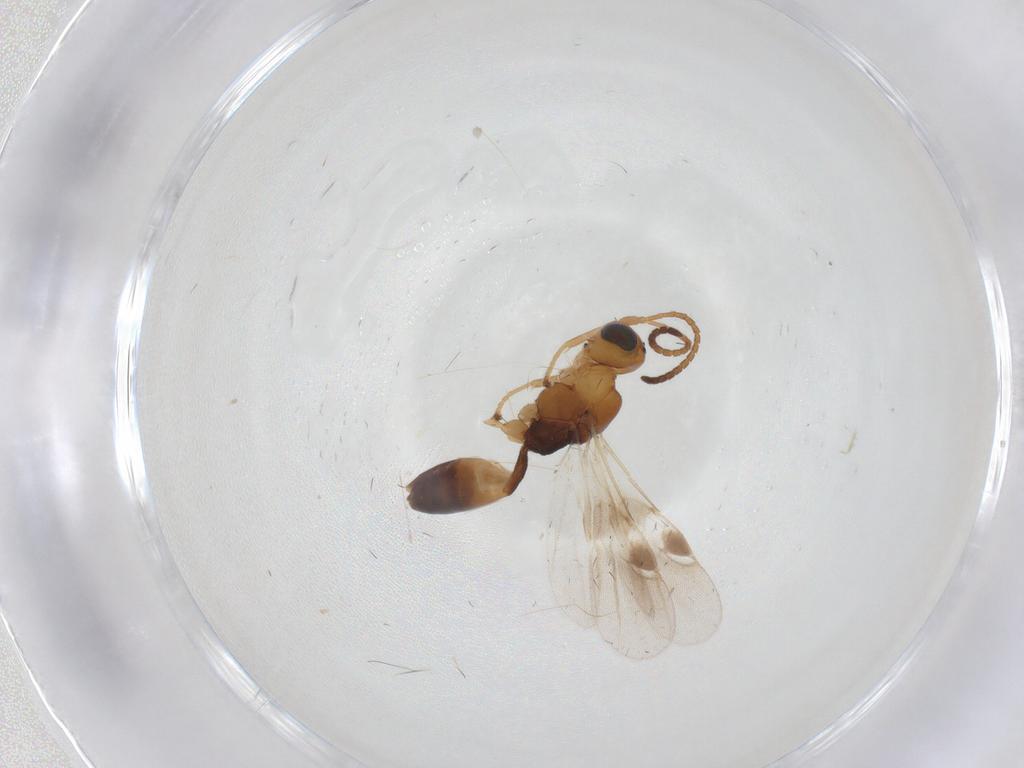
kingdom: Animalia
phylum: Arthropoda
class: Insecta
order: Hymenoptera
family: Braconidae
